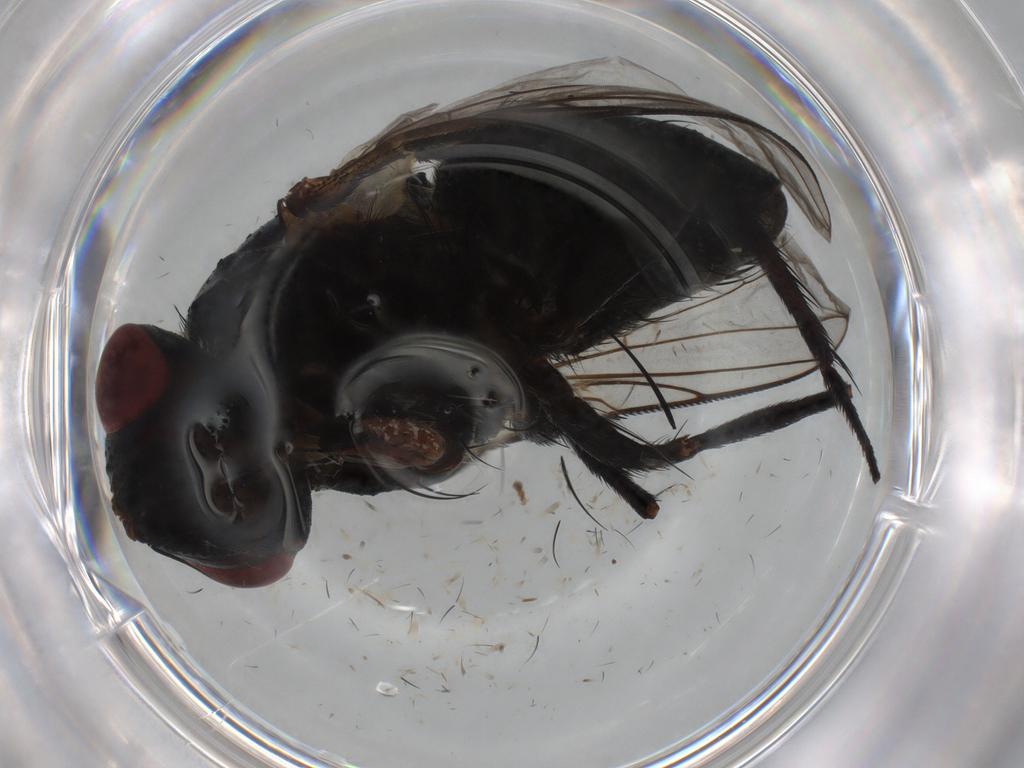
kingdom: Animalia
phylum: Arthropoda
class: Insecta
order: Diptera
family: Tachinidae
